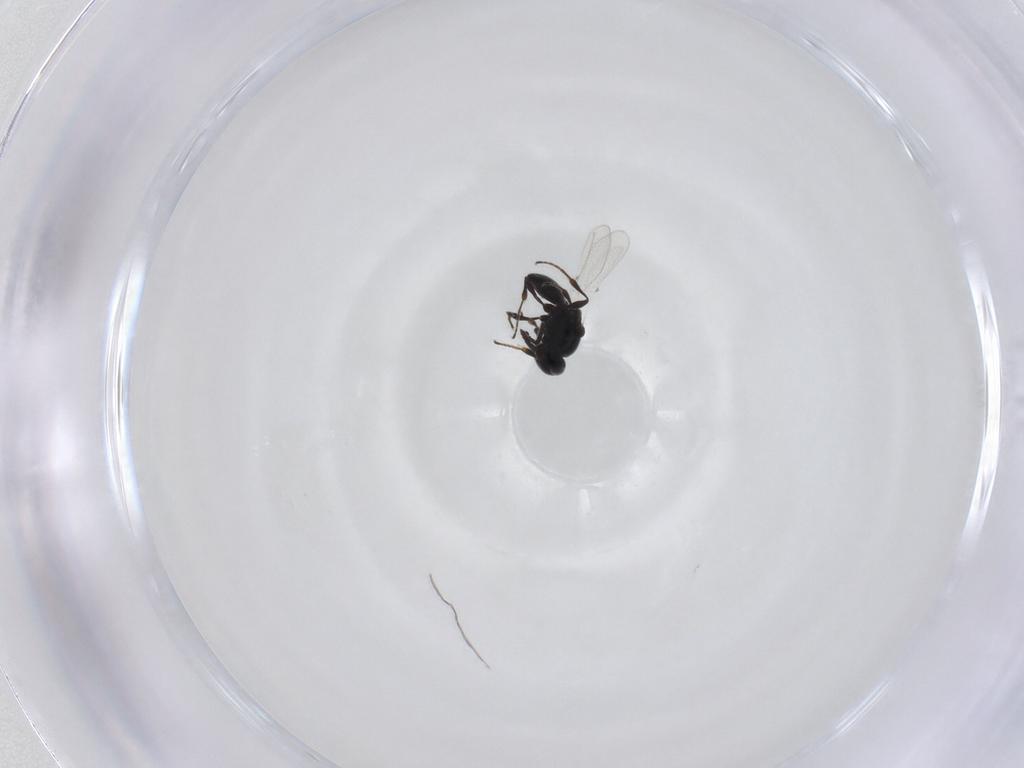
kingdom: Animalia
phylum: Arthropoda
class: Insecta
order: Hymenoptera
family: Platygastridae
